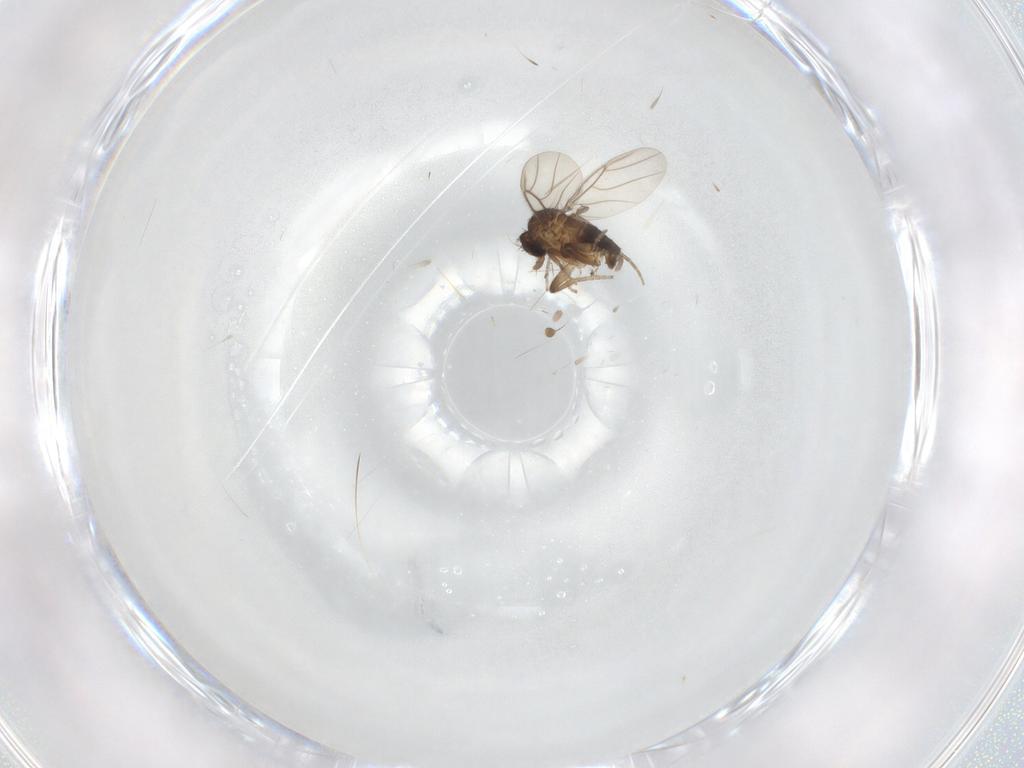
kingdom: Animalia
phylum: Arthropoda
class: Insecta
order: Diptera
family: Phoridae
